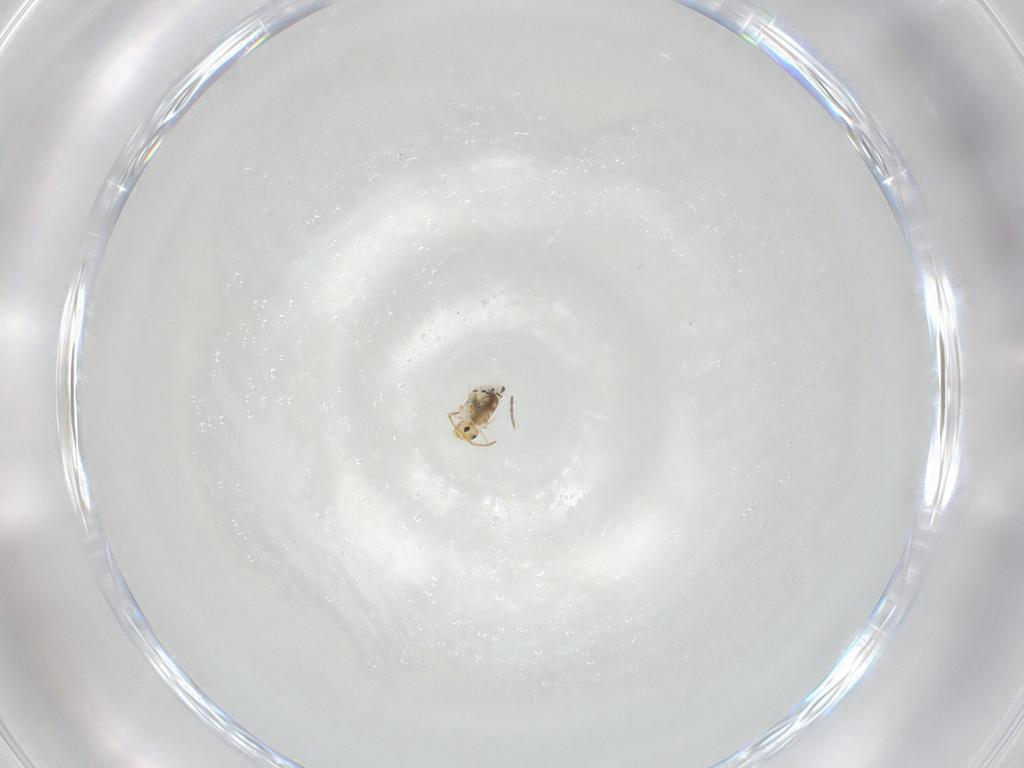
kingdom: Animalia
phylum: Arthropoda
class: Collembola
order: Symphypleona
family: Bourletiellidae
